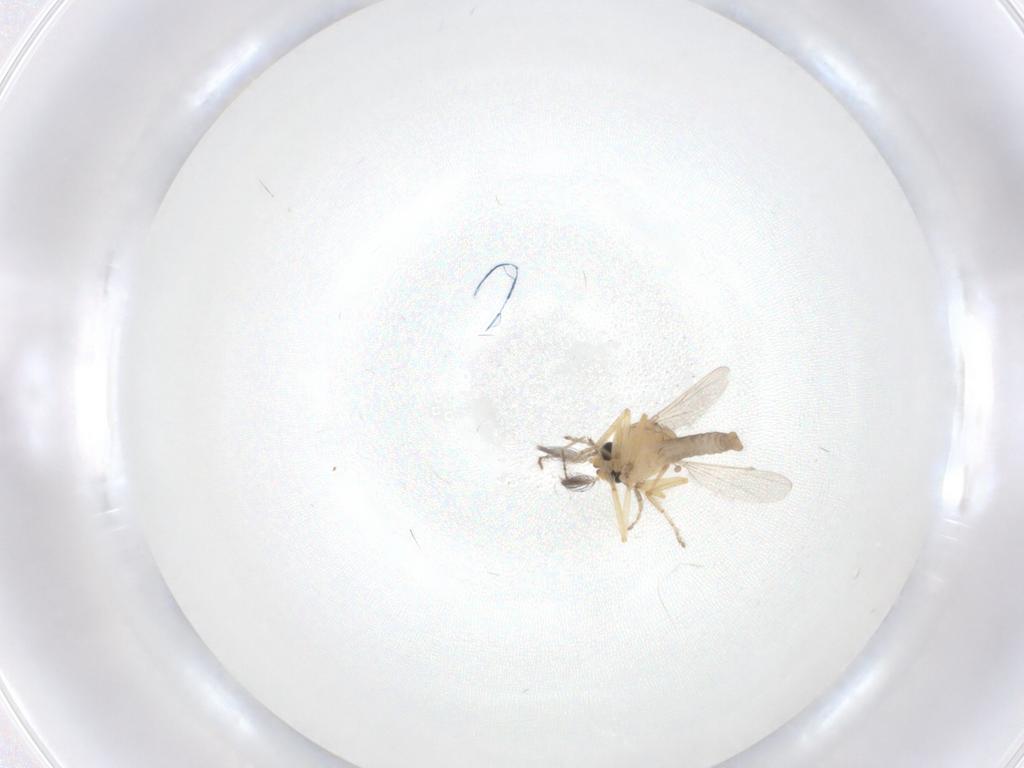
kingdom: Animalia
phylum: Arthropoda
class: Insecta
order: Diptera
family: Ceratopogonidae
